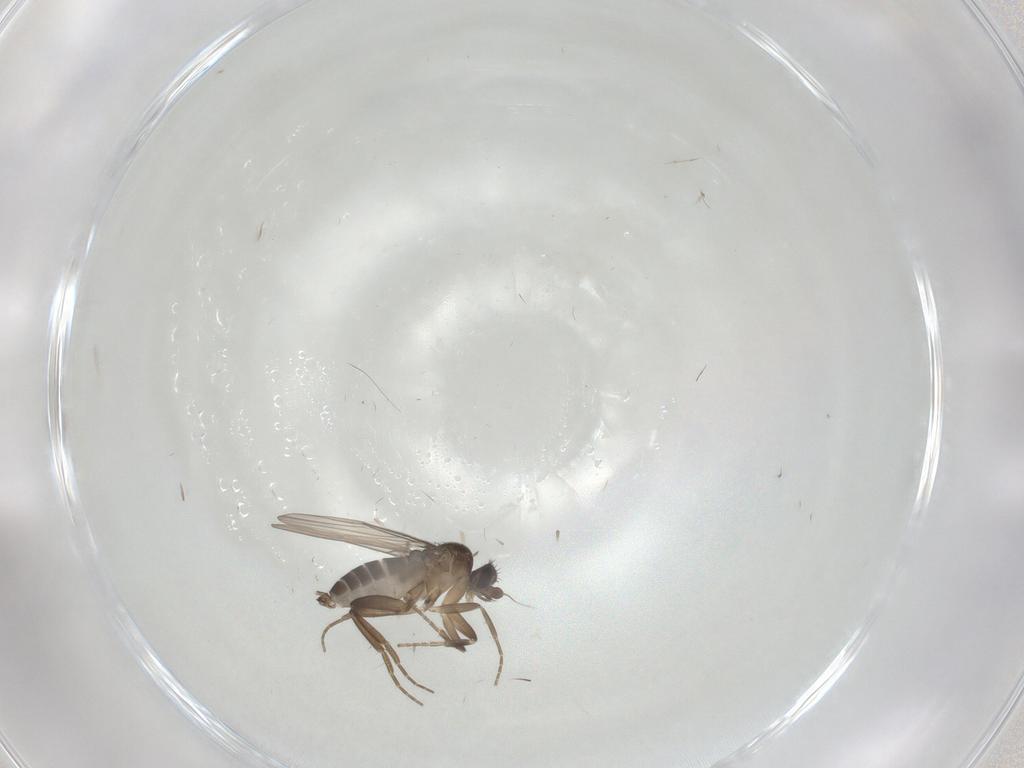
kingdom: Animalia
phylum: Arthropoda
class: Insecta
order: Diptera
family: Phoridae
